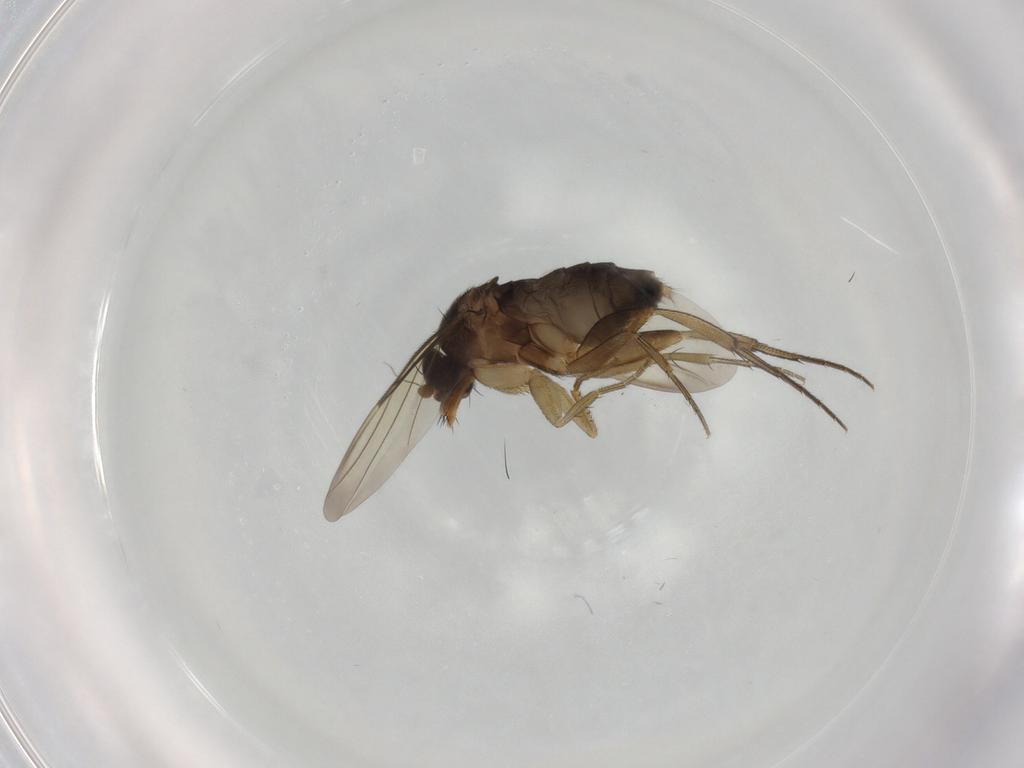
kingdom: Animalia
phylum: Arthropoda
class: Insecta
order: Diptera
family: Phoridae
